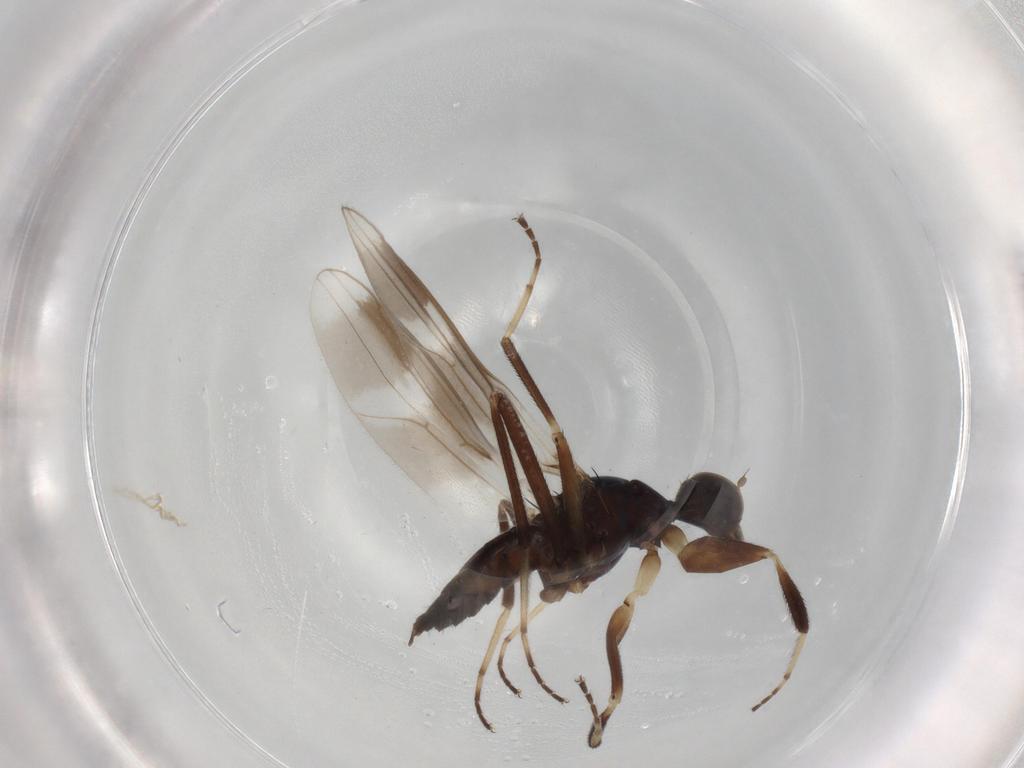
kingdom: Animalia
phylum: Arthropoda
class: Insecta
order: Diptera
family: Hybotidae
